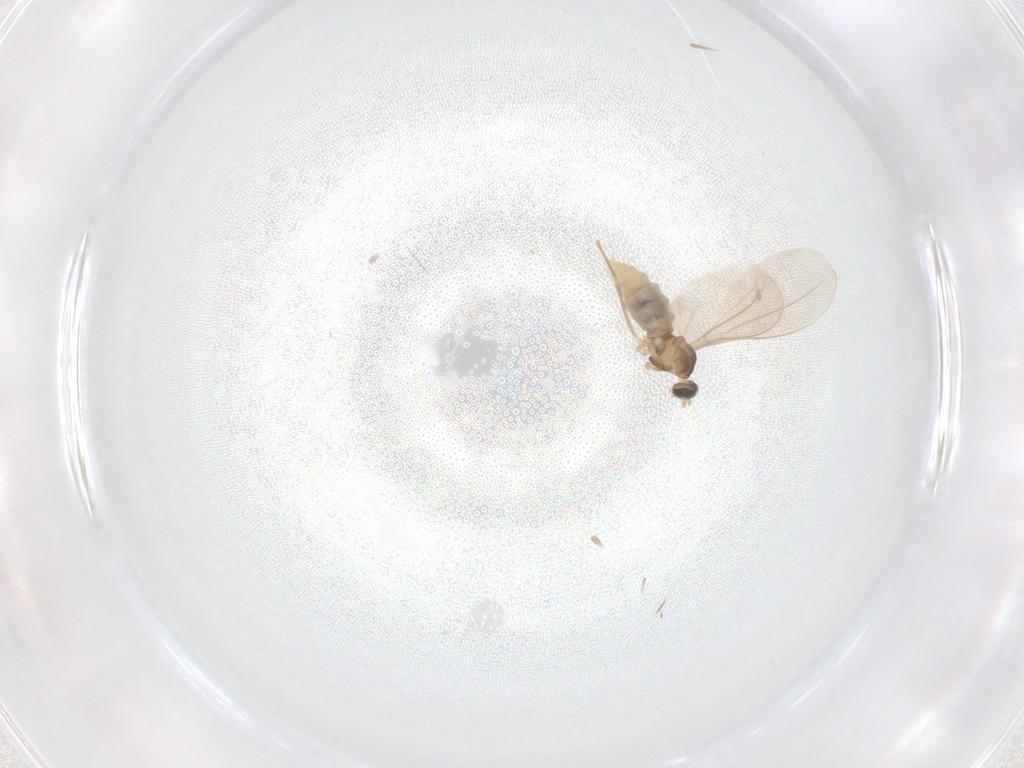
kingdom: Animalia
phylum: Arthropoda
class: Insecta
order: Diptera
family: Cecidomyiidae
